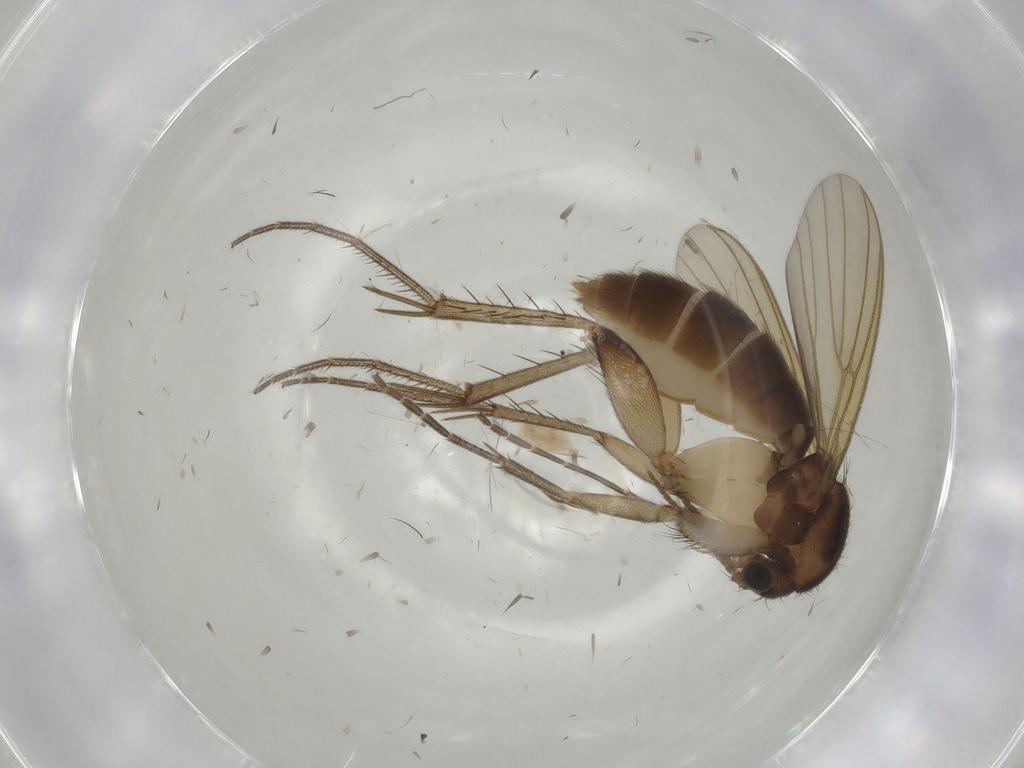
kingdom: Animalia
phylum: Arthropoda
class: Insecta
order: Diptera
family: Mycetophilidae
